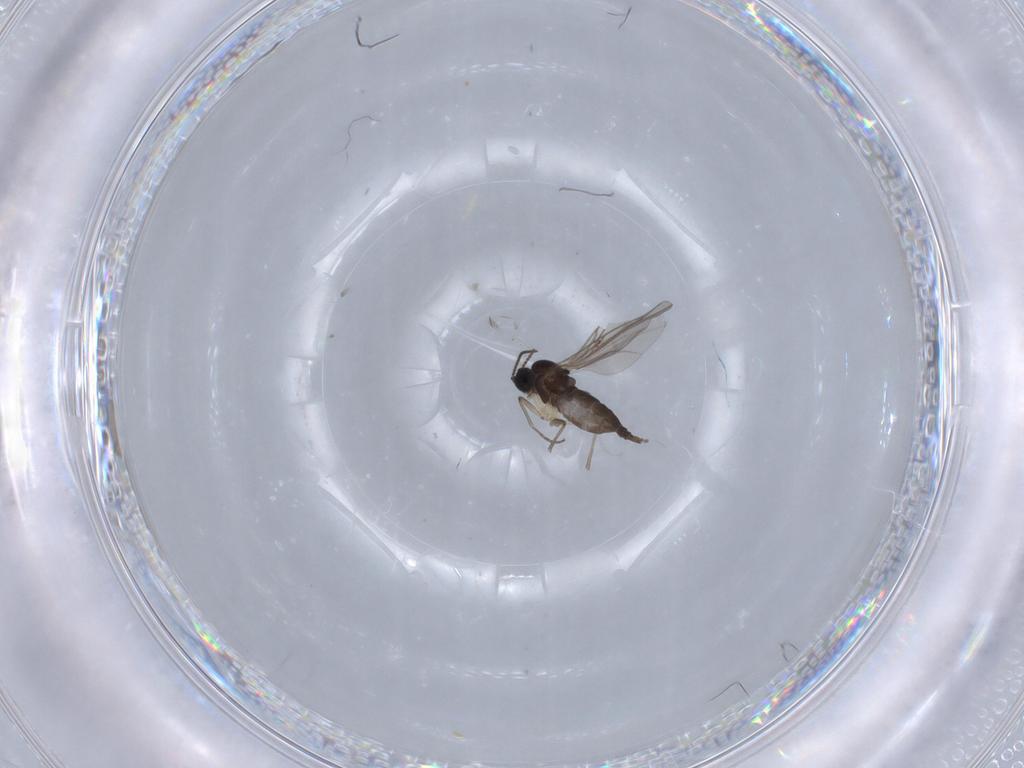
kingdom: Animalia
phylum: Arthropoda
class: Insecta
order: Diptera
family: Sciaridae
